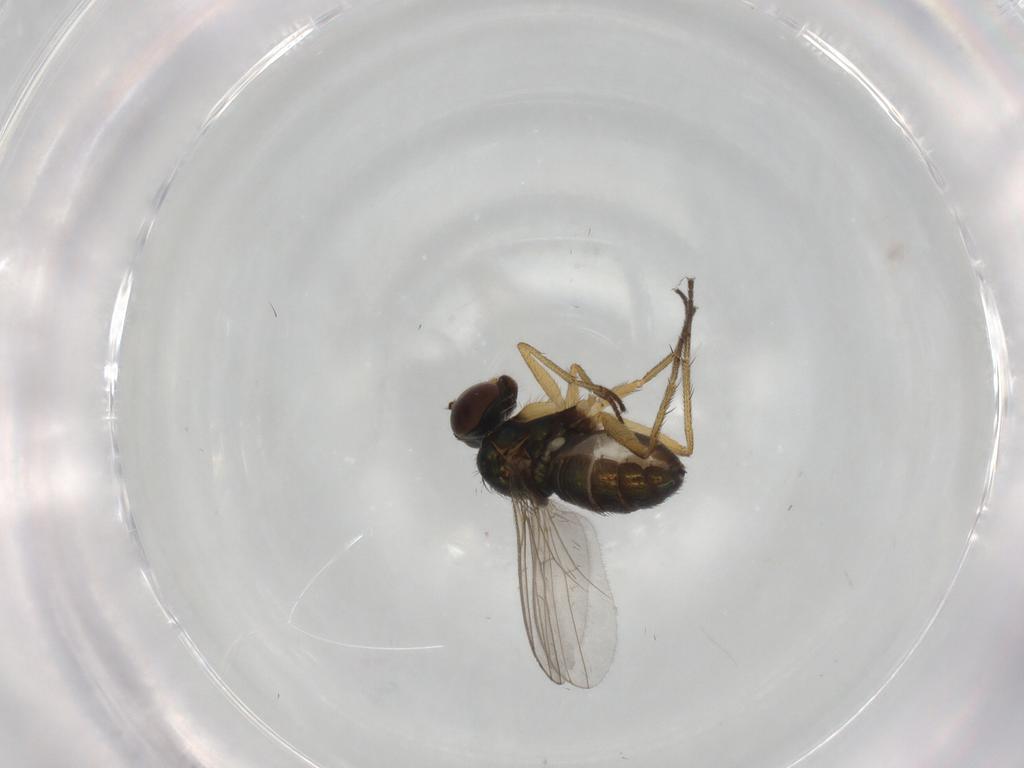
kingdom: Animalia
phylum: Arthropoda
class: Insecta
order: Diptera
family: Dolichopodidae
